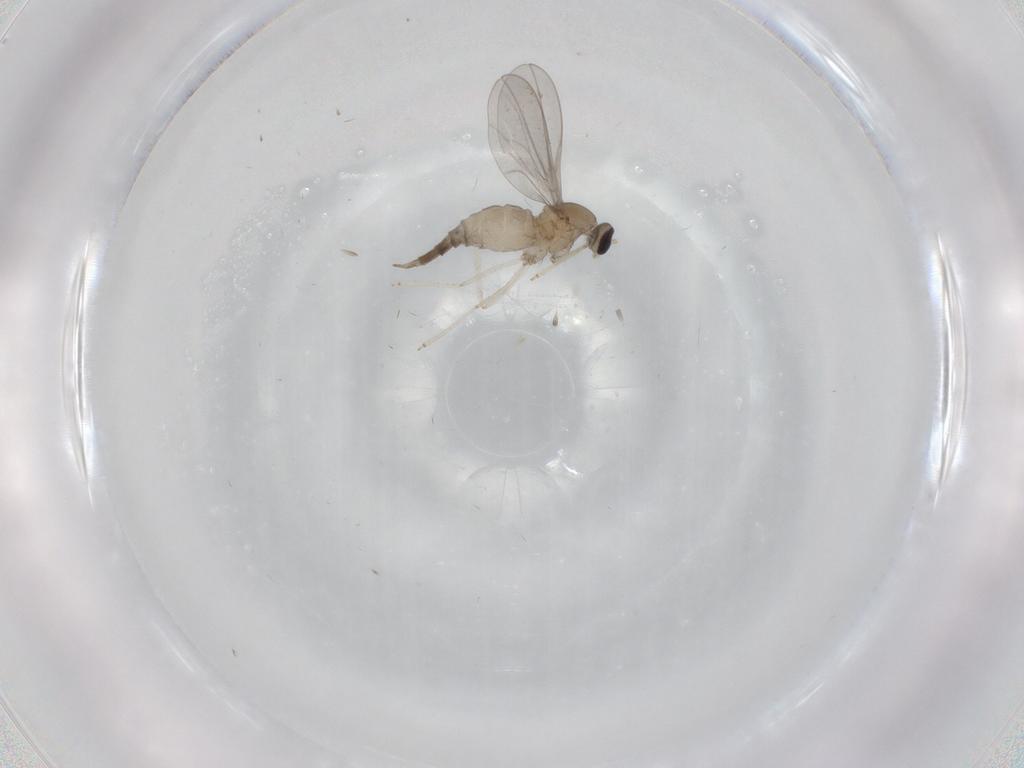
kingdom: Animalia
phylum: Arthropoda
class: Insecta
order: Diptera
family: Cecidomyiidae
